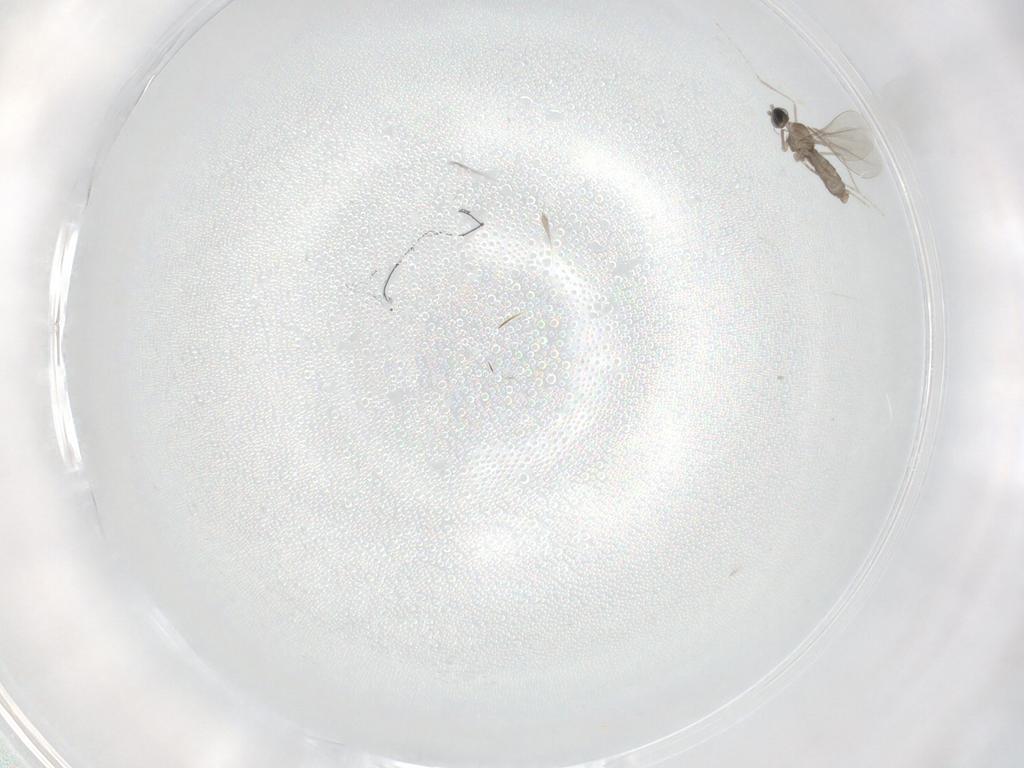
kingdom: Animalia
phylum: Arthropoda
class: Insecta
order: Diptera
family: Cecidomyiidae
